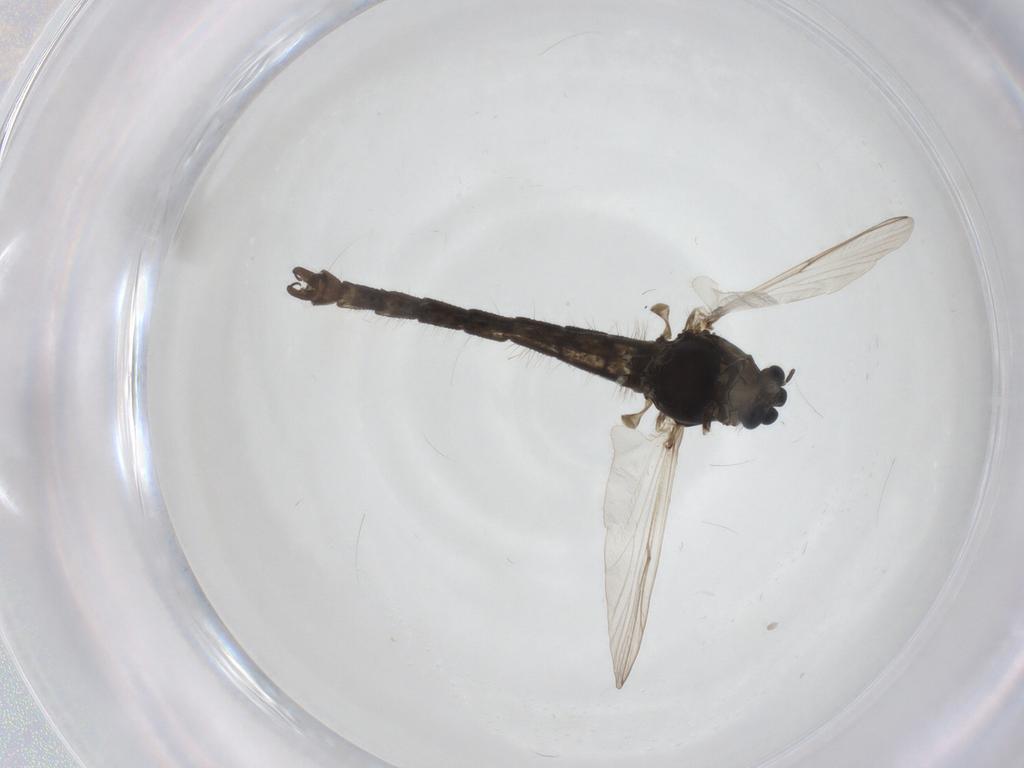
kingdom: Animalia
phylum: Arthropoda
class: Insecta
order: Diptera
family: Chironomidae
